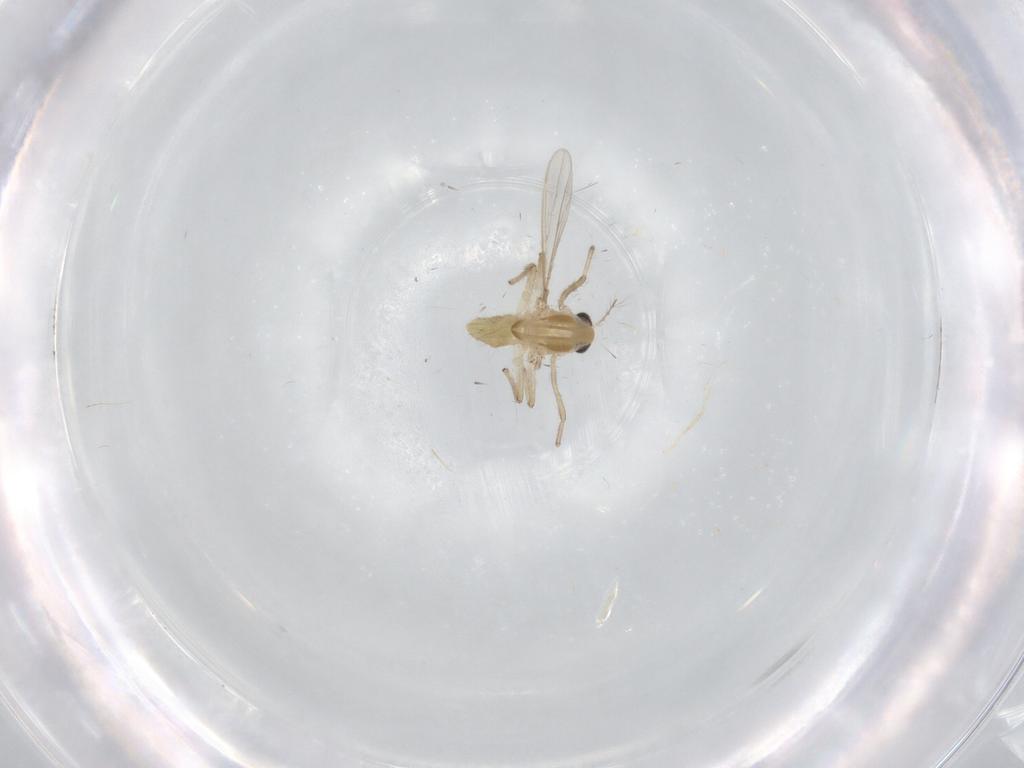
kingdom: Animalia
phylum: Arthropoda
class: Insecta
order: Diptera
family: Chironomidae
